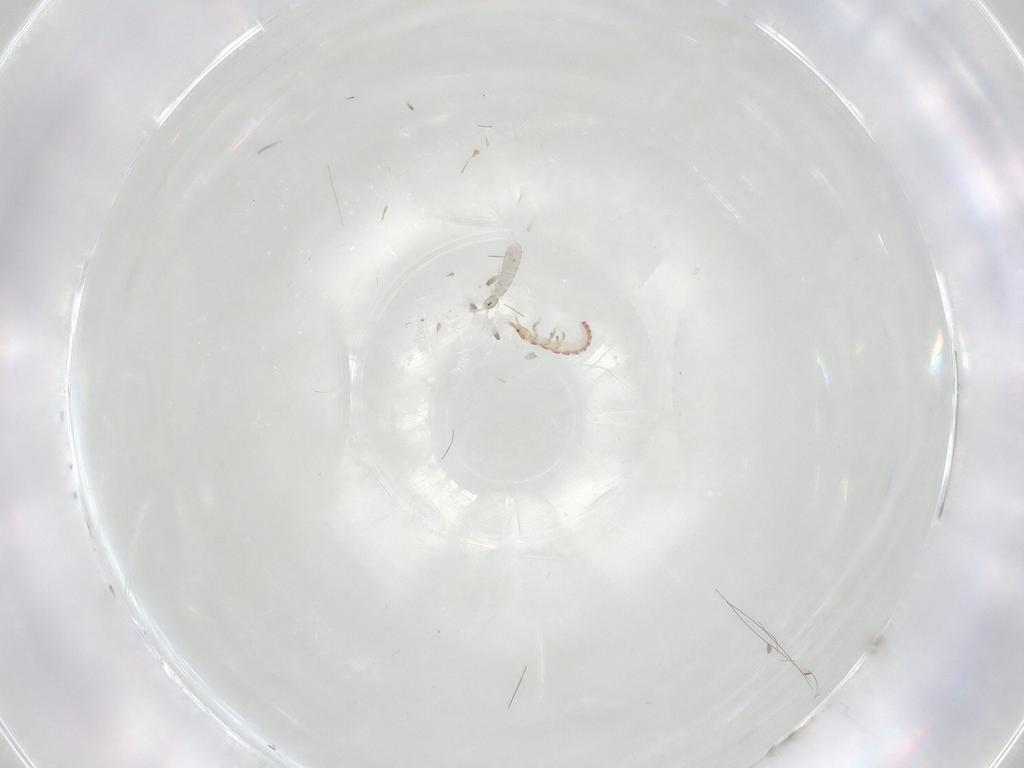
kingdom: Animalia
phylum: Arthropoda
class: Insecta
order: Neuroptera
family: Mantispidae
